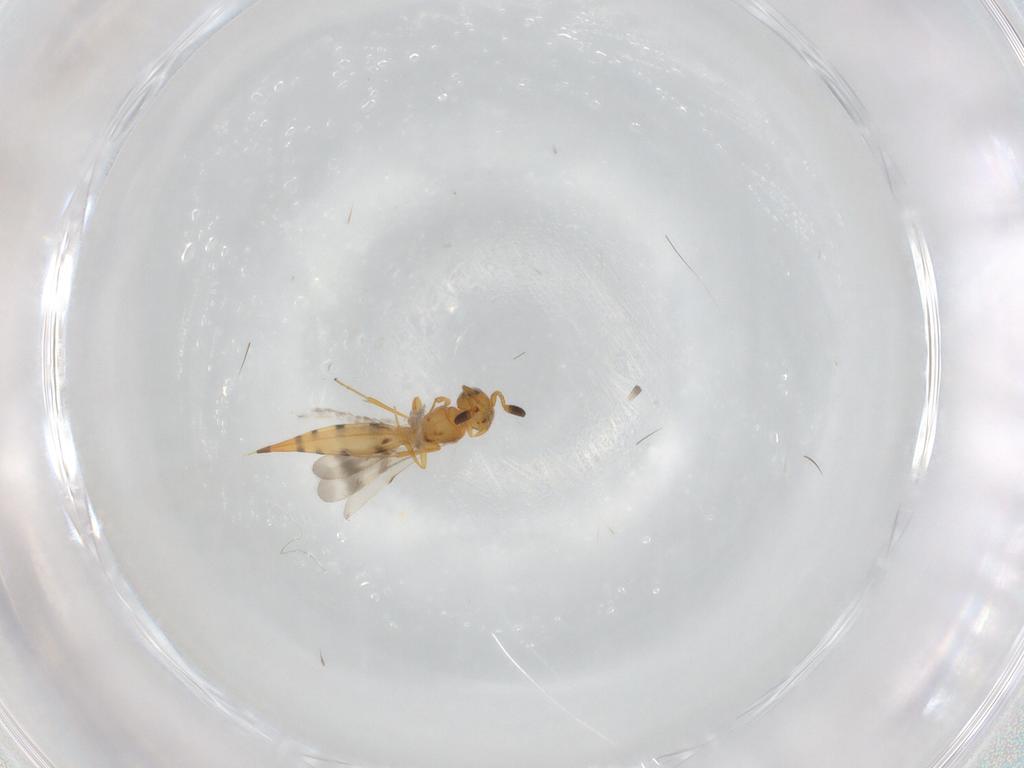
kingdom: Animalia
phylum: Arthropoda
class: Insecta
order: Hymenoptera
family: Scelionidae
